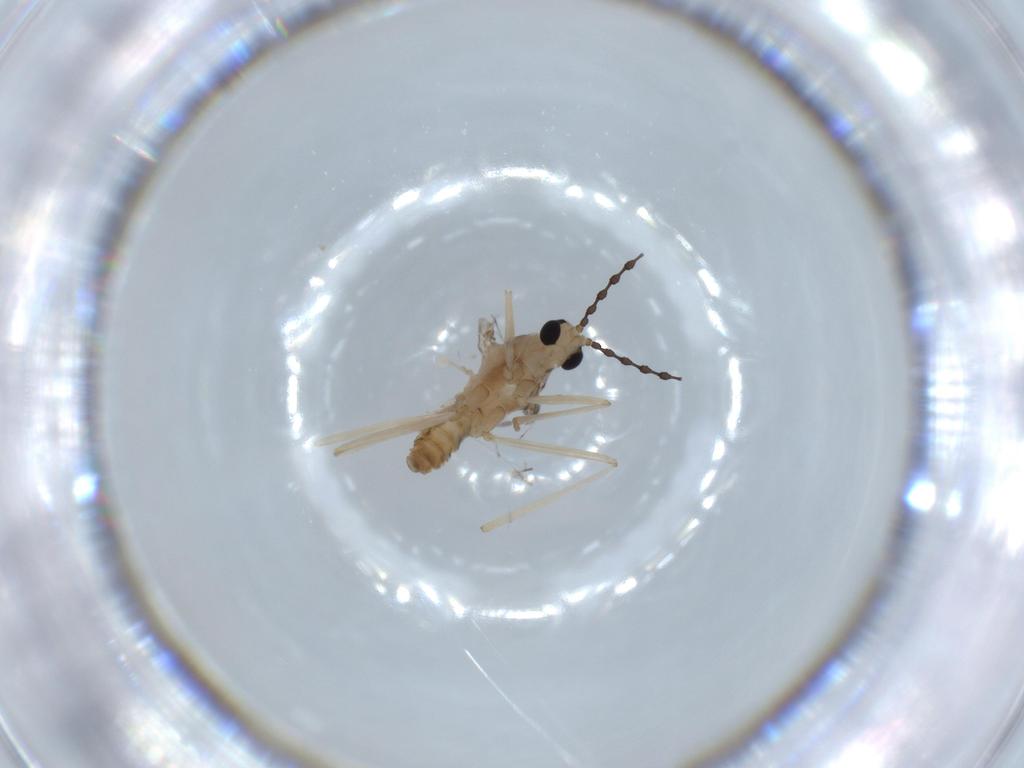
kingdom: Animalia
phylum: Arthropoda
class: Insecta
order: Diptera
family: Cecidomyiidae
